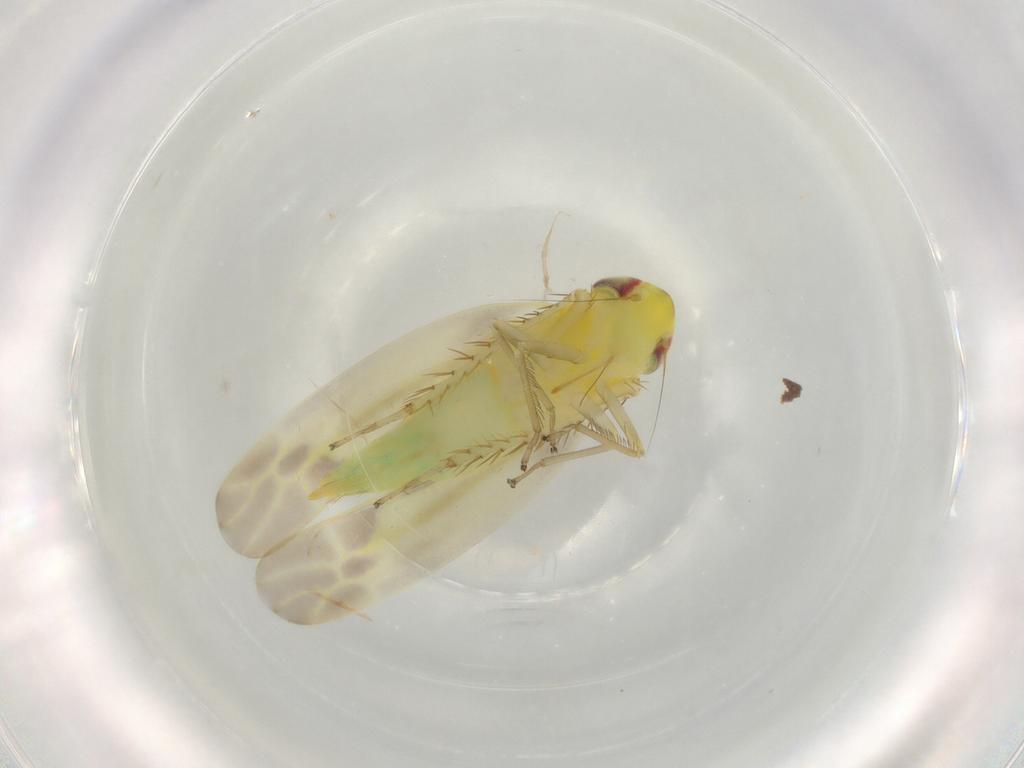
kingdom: Animalia
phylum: Arthropoda
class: Insecta
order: Hemiptera
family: Cicadellidae
